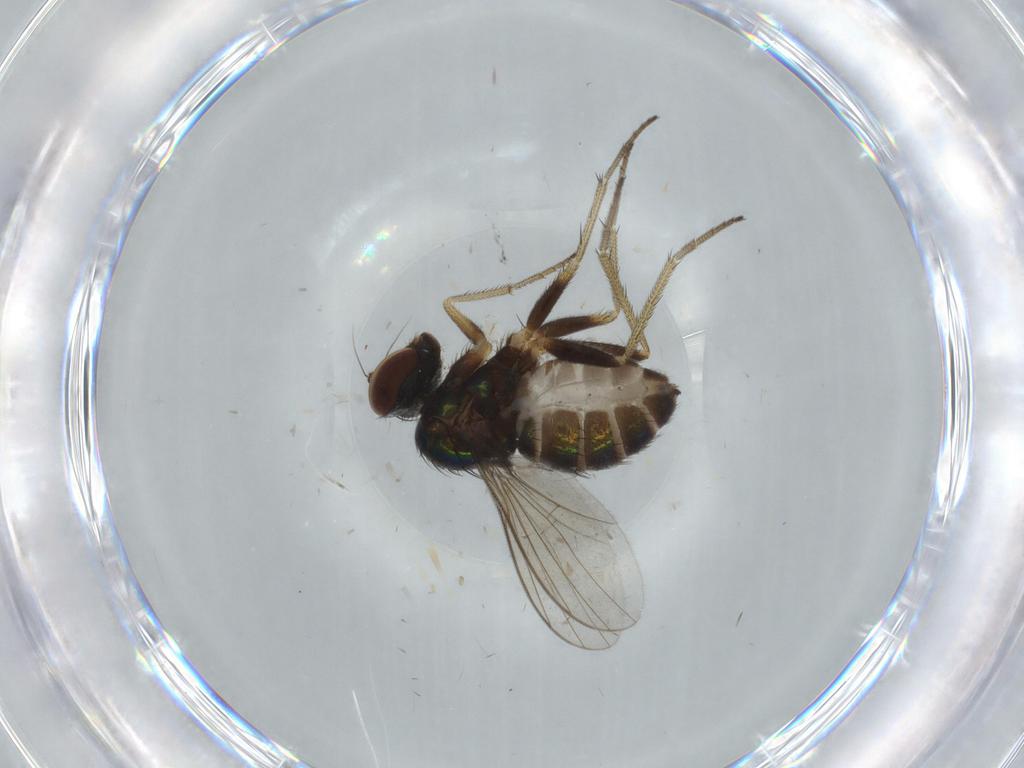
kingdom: Animalia
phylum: Arthropoda
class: Insecta
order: Diptera
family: Dolichopodidae
